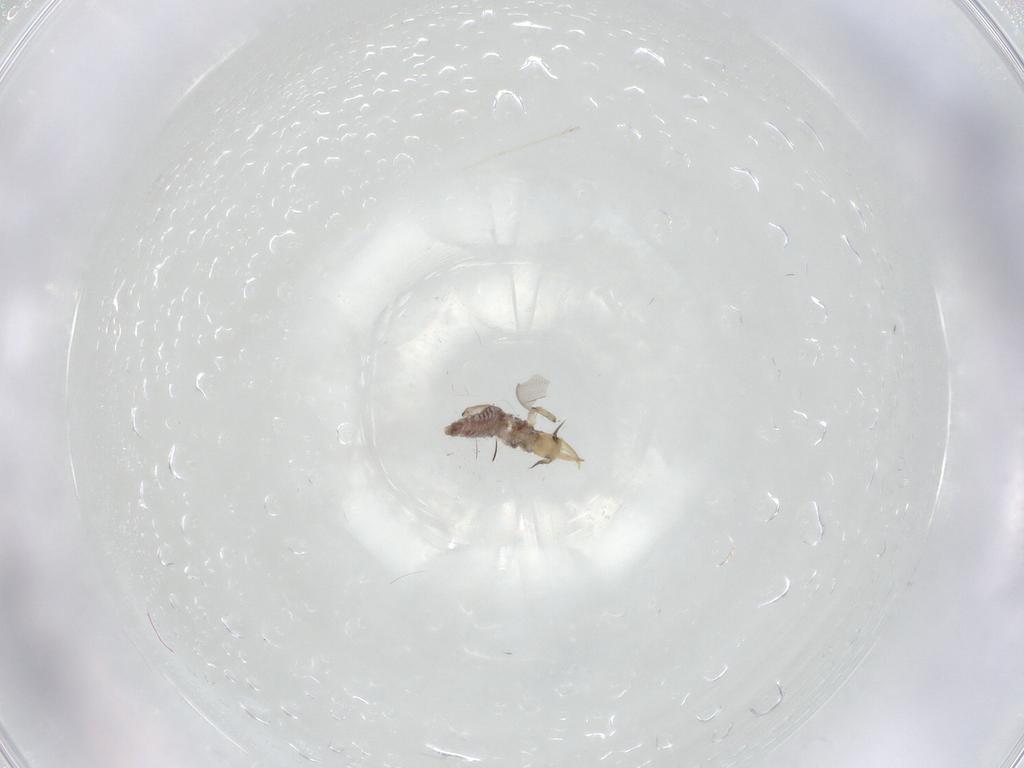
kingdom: Animalia
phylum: Arthropoda
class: Insecta
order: Neuroptera
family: Hemerobiidae
